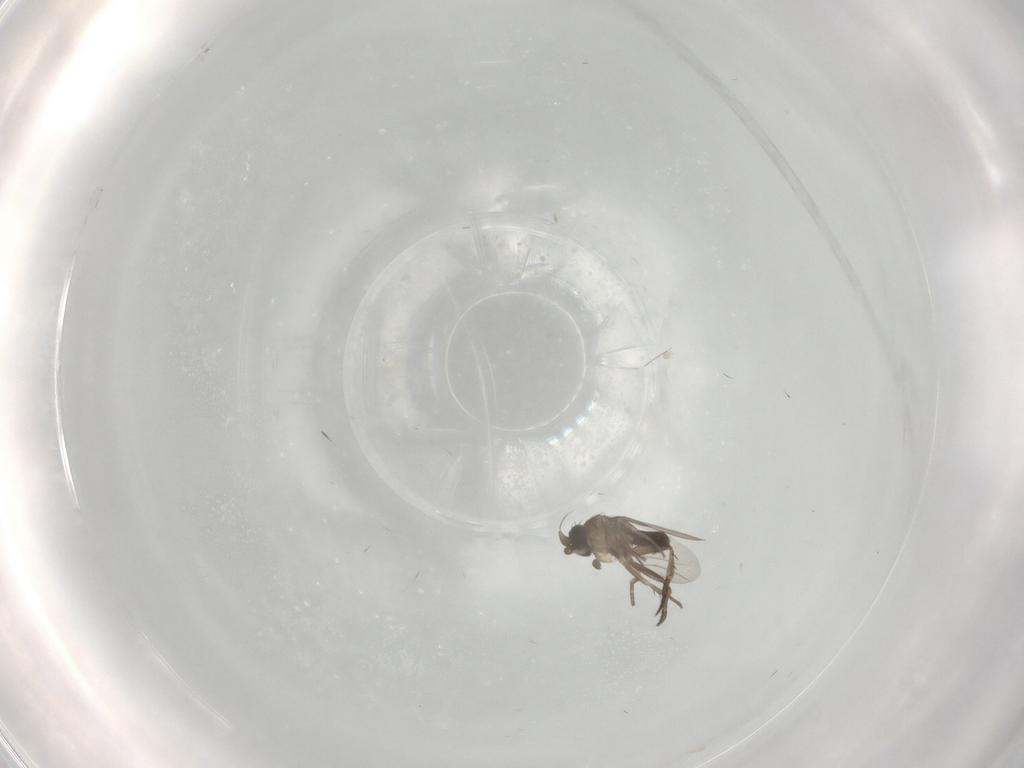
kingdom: Animalia
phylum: Arthropoda
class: Insecta
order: Diptera
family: Phoridae
